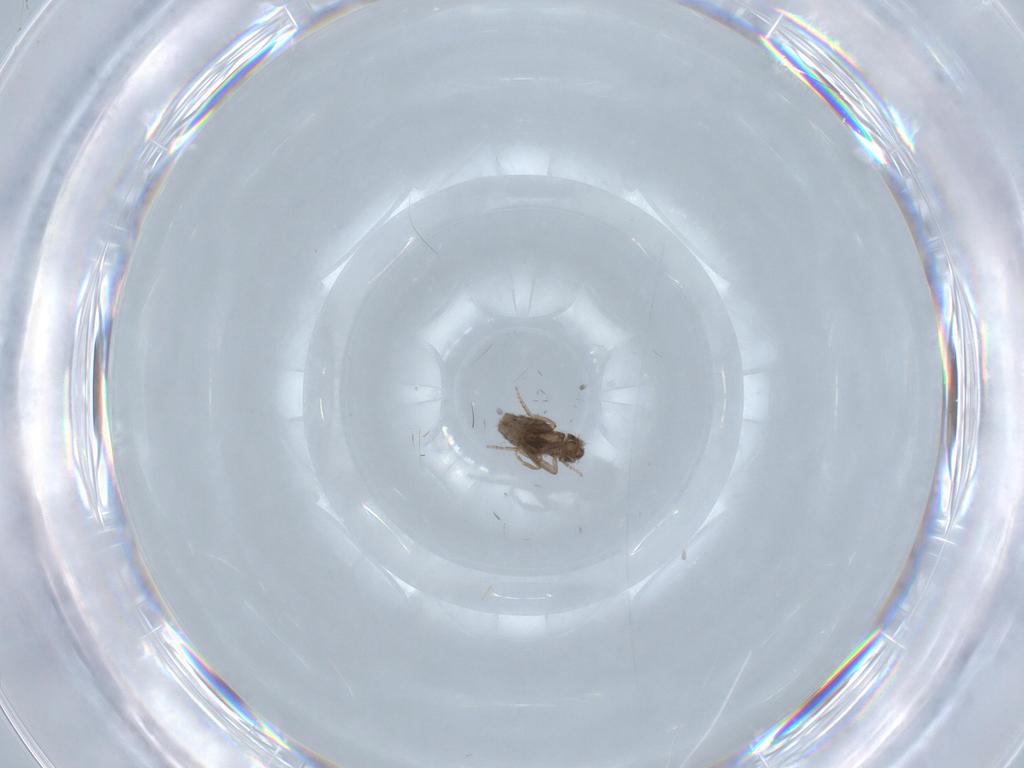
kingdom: Animalia
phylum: Arthropoda
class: Insecta
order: Diptera
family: Phoridae
